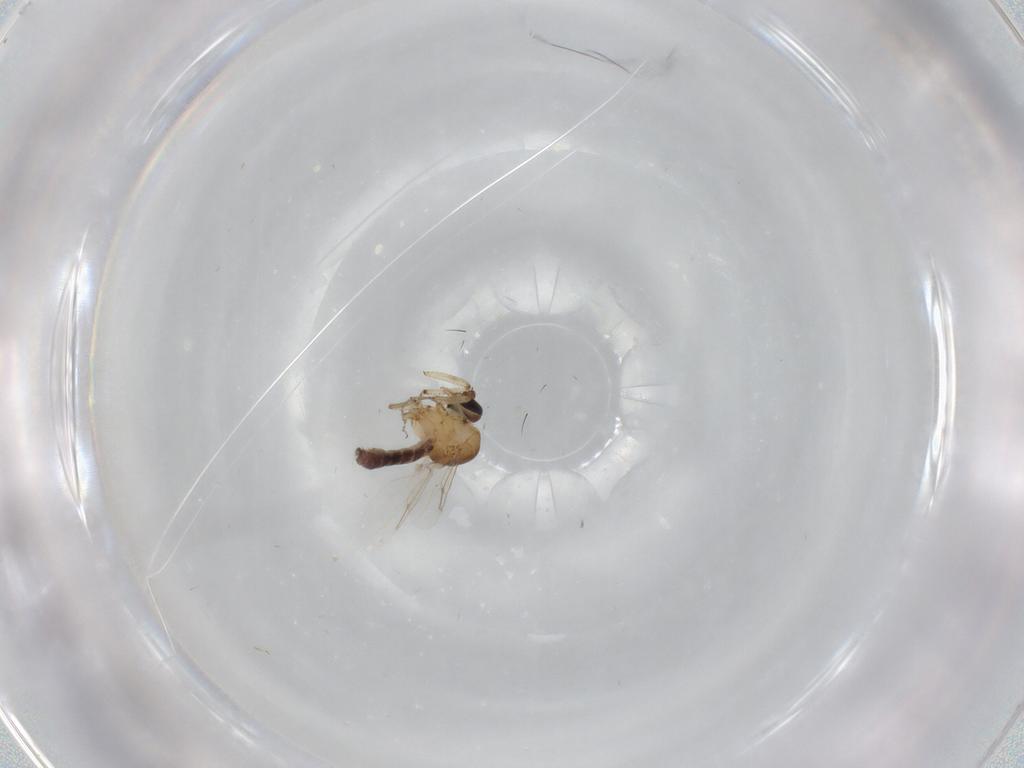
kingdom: Animalia
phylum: Arthropoda
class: Insecta
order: Diptera
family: Ceratopogonidae
